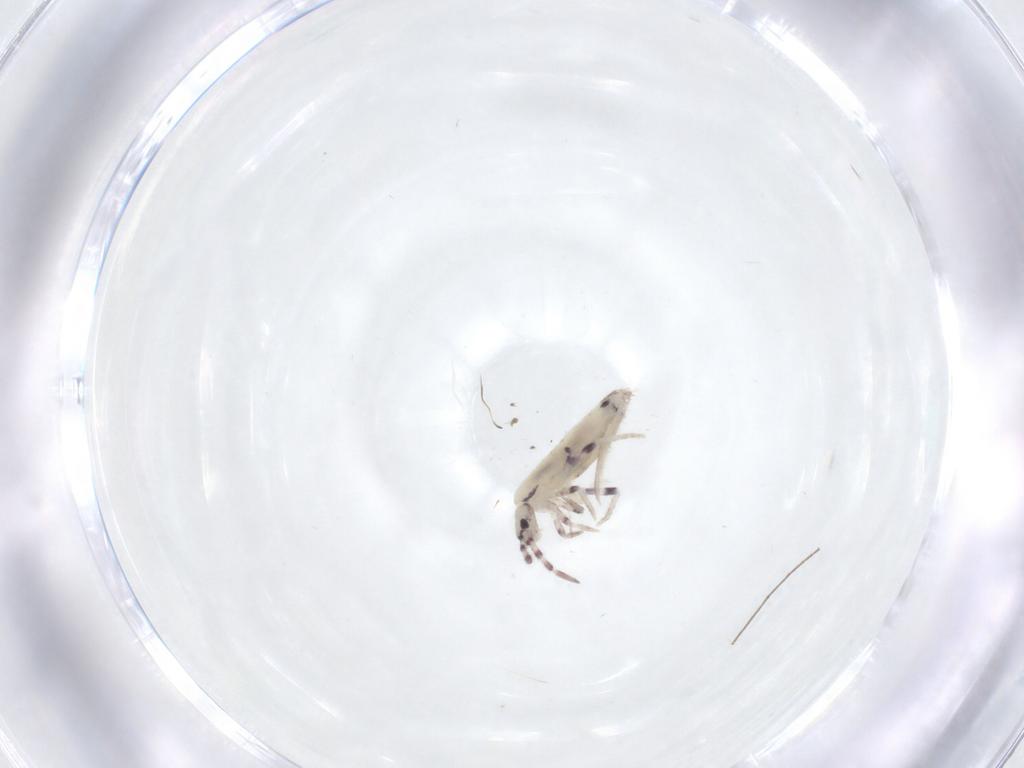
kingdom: Animalia
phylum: Arthropoda
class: Collembola
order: Entomobryomorpha
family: Entomobryidae
